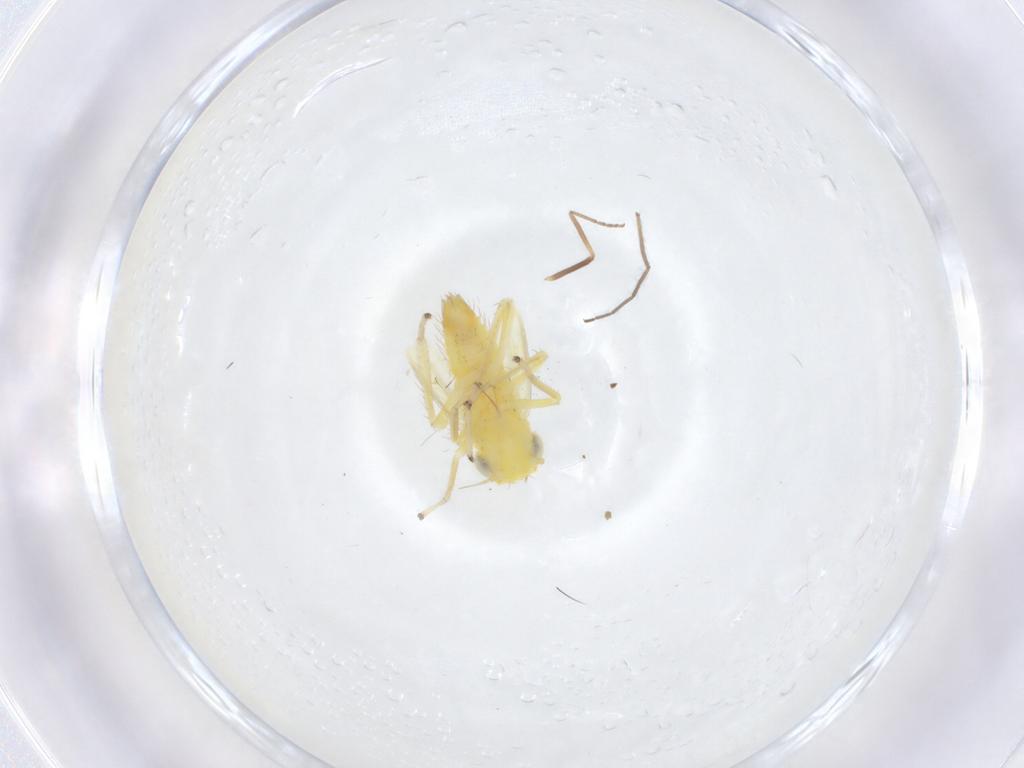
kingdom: Animalia
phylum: Arthropoda
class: Insecta
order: Hemiptera
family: Cicadellidae
